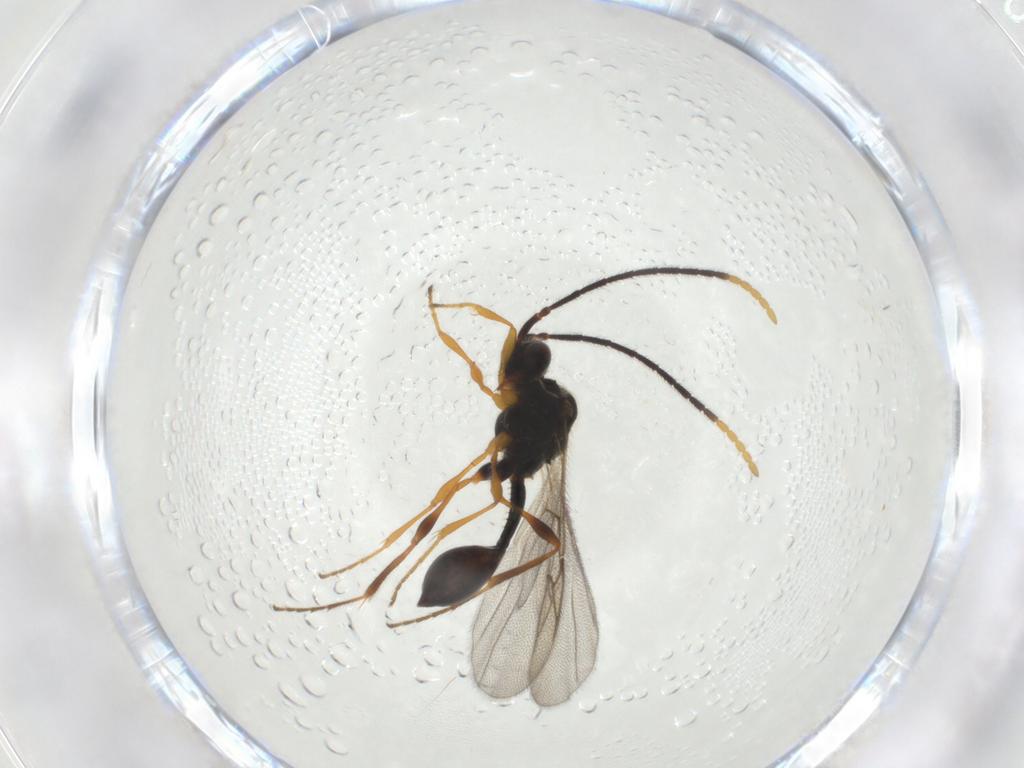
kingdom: Animalia
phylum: Arthropoda
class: Insecta
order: Hymenoptera
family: Diapriidae
